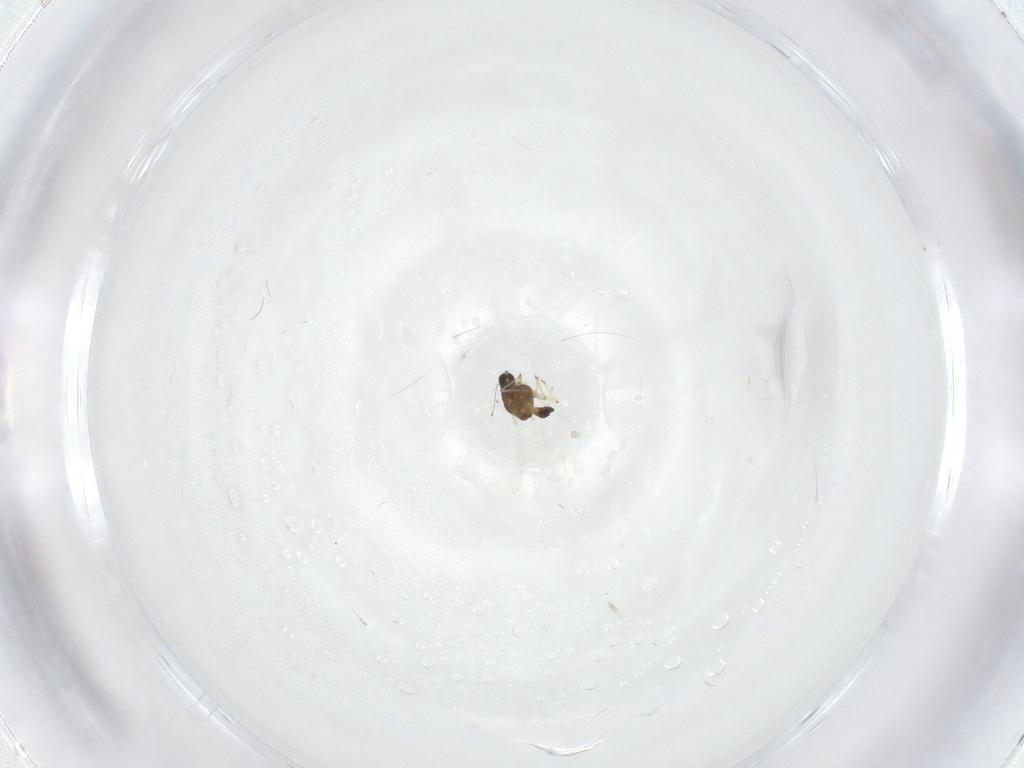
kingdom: Animalia
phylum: Arthropoda
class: Insecta
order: Diptera
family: Chironomidae
